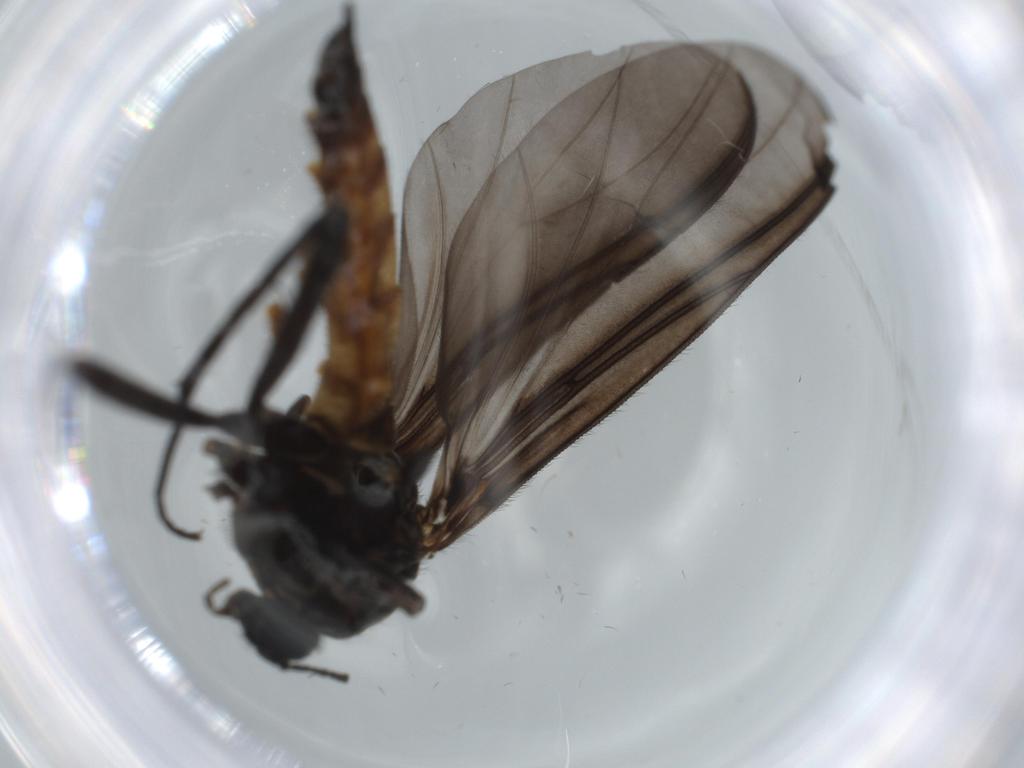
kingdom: Animalia
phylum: Arthropoda
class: Insecta
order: Diptera
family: Sciaridae
